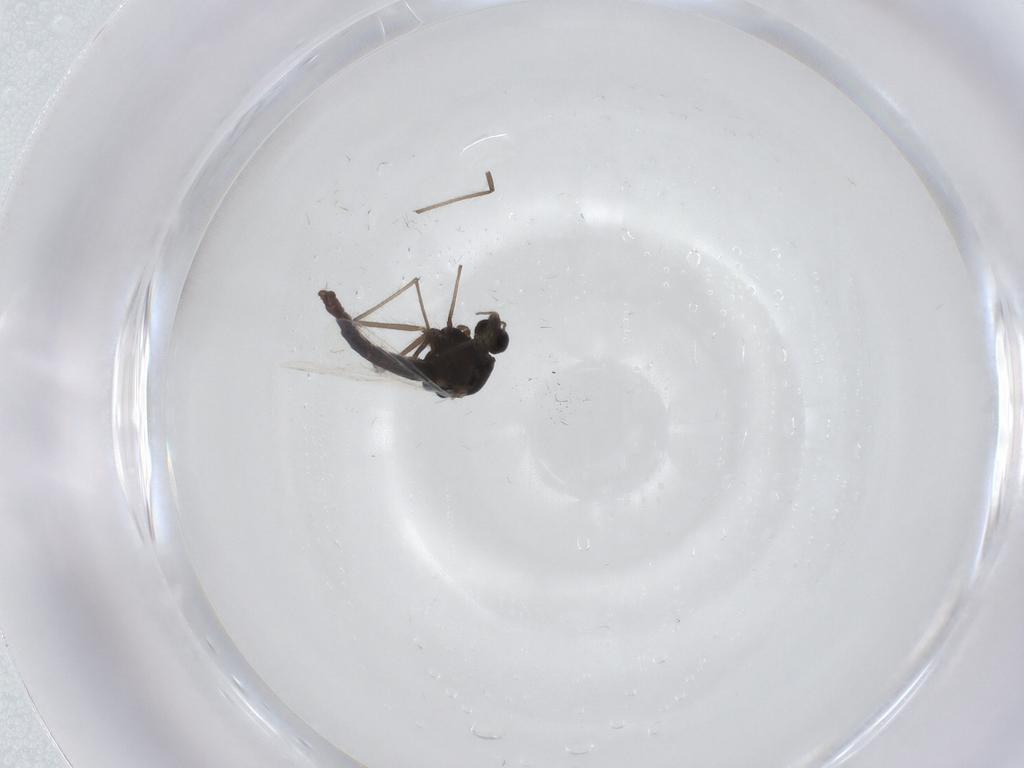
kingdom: Animalia
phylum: Arthropoda
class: Insecta
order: Diptera
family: Chironomidae
